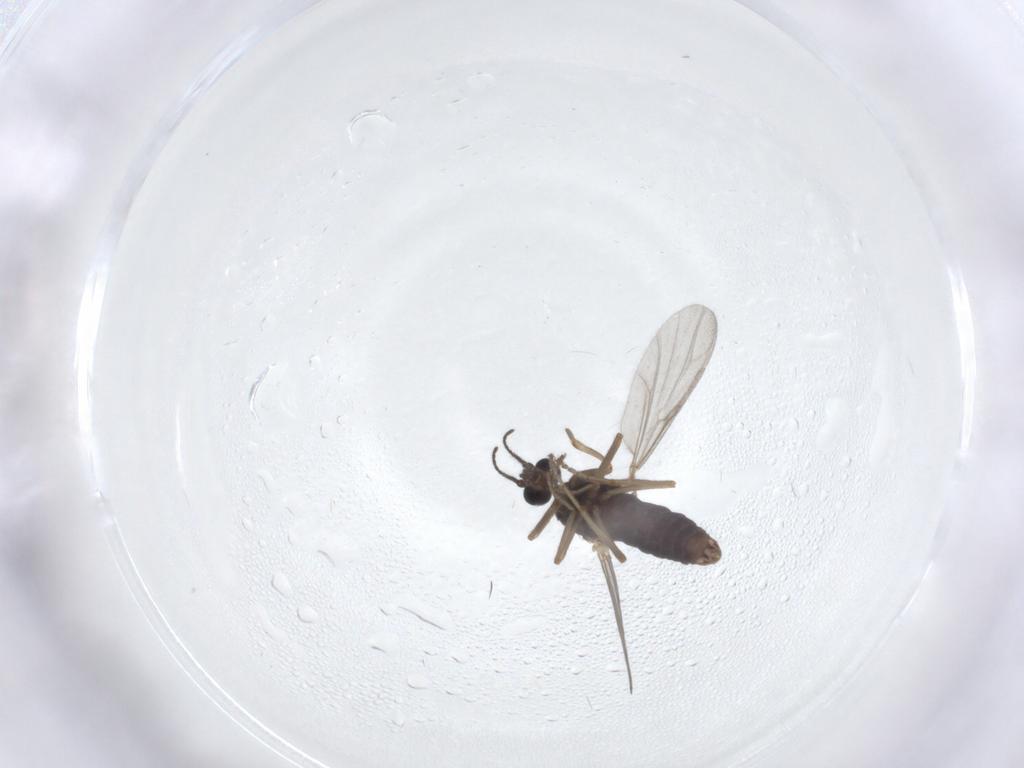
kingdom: Animalia
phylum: Arthropoda
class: Insecta
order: Diptera
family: Ceratopogonidae
